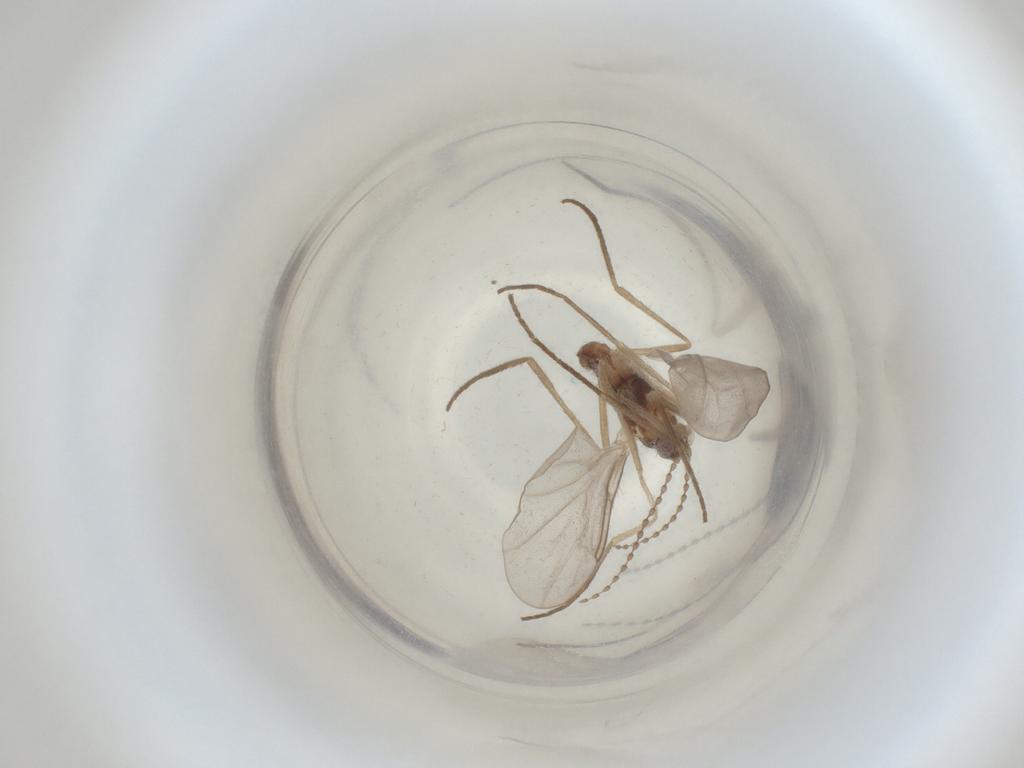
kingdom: Animalia
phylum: Arthropoda
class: Insecta
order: Diptera
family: Cecidomyiidae
